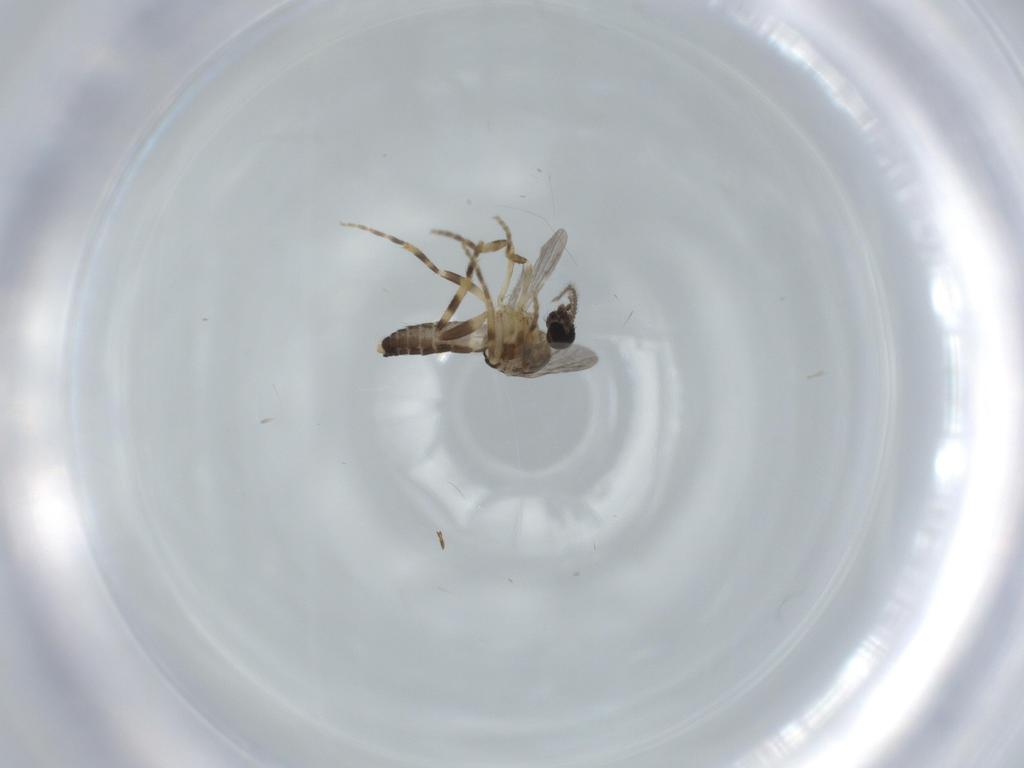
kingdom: Animalia
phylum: Arthropoda
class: Insecta
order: Diptera
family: Ceratopogonidae
